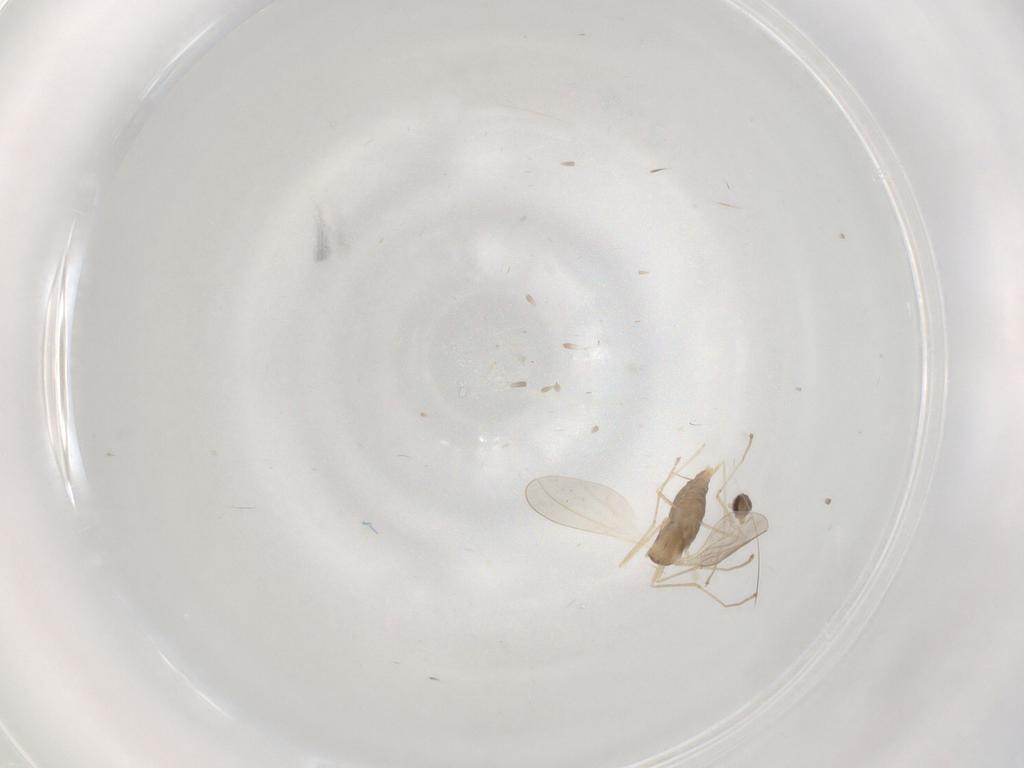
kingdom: Animalia
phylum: Arthropoda
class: Insecta
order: Diptera
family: Cecidomyiidae
